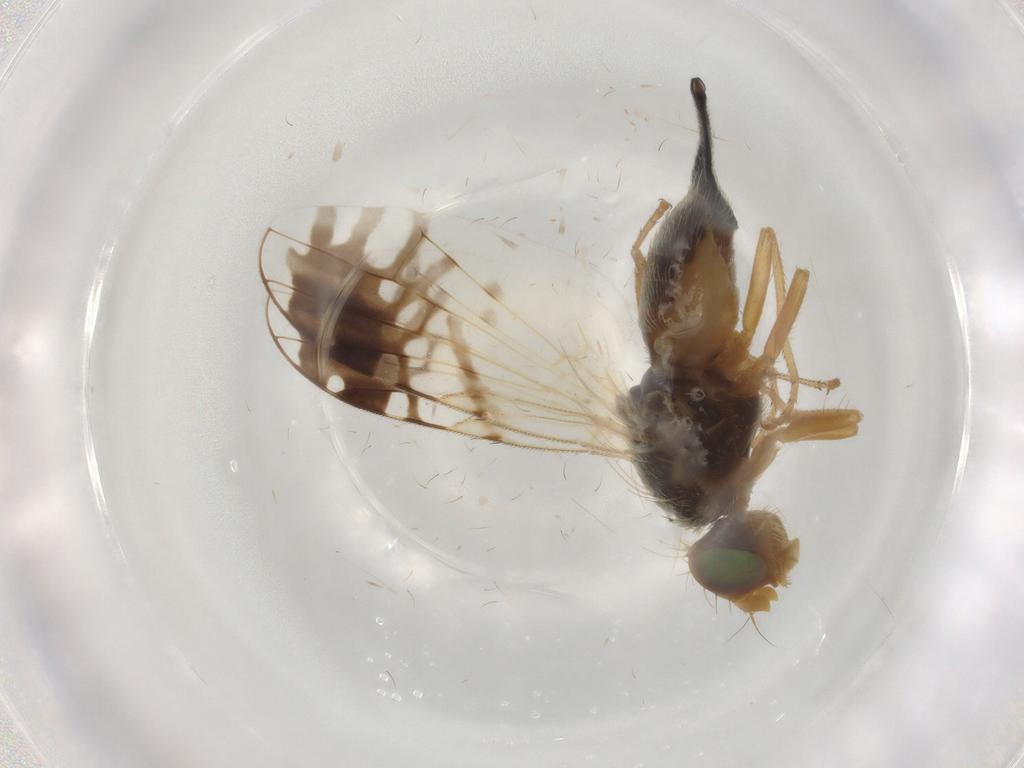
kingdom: Animalia
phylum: Arthropoda
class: Insecta
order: Diptera
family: Tephritidae
